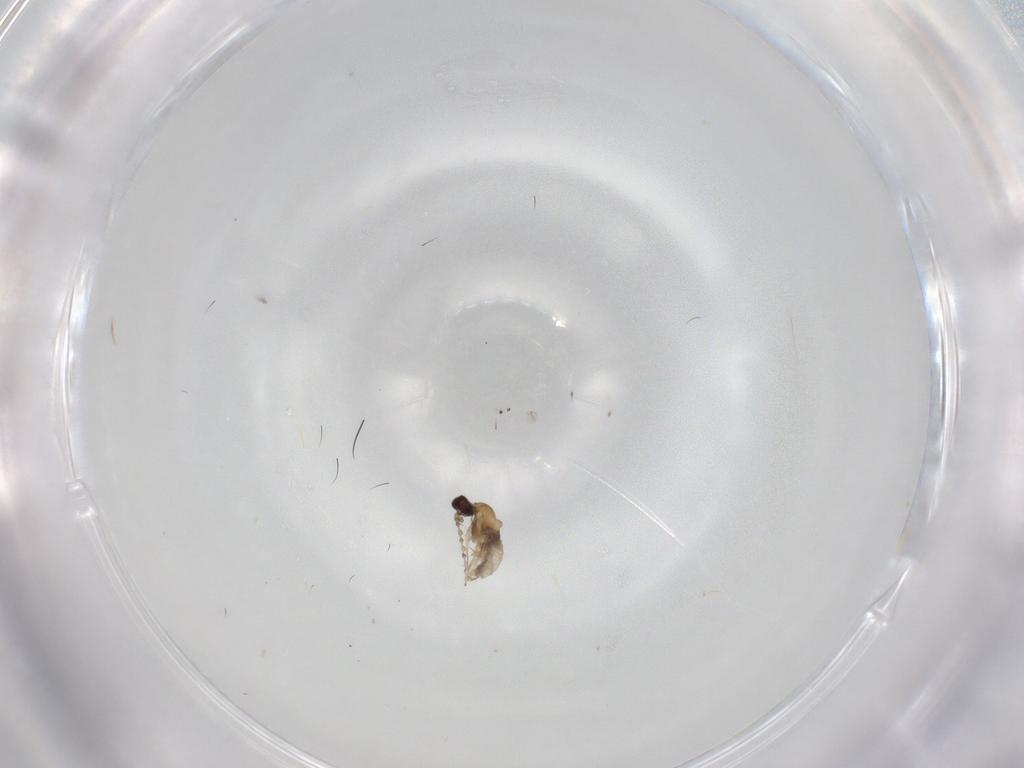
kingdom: Animalia
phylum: Arthropoda
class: Insecta
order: Diptera
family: Cecidomyiidae
